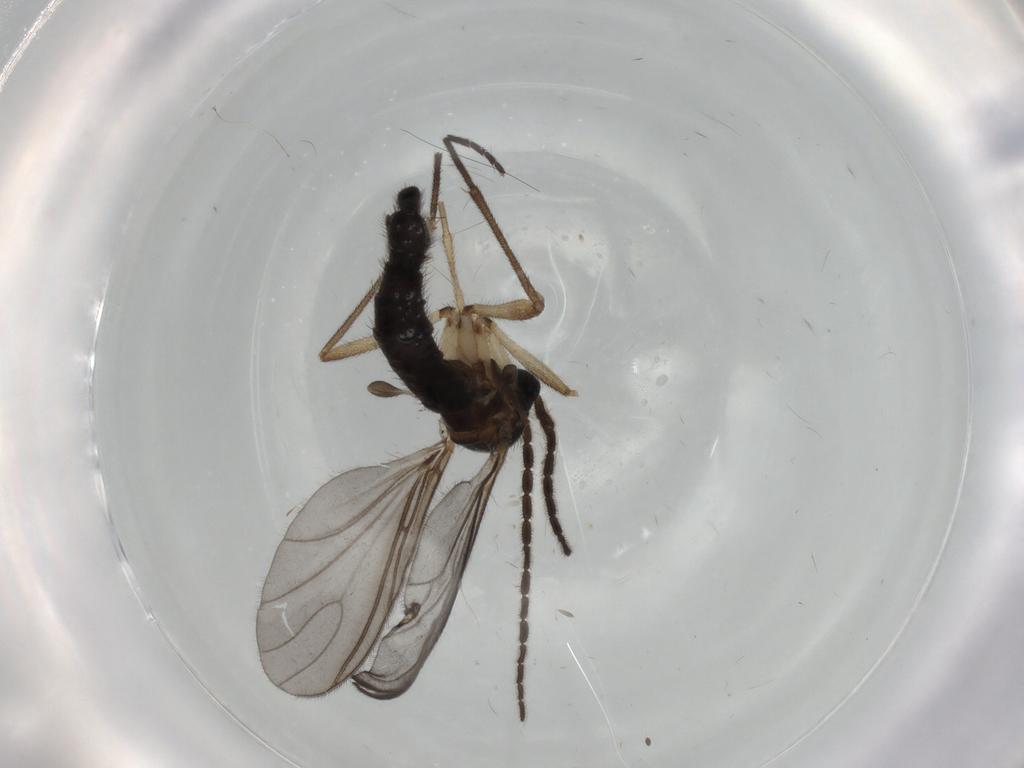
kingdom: Animalia
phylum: Arthropoda
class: Insecta
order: Diptera
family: Sciaridae
